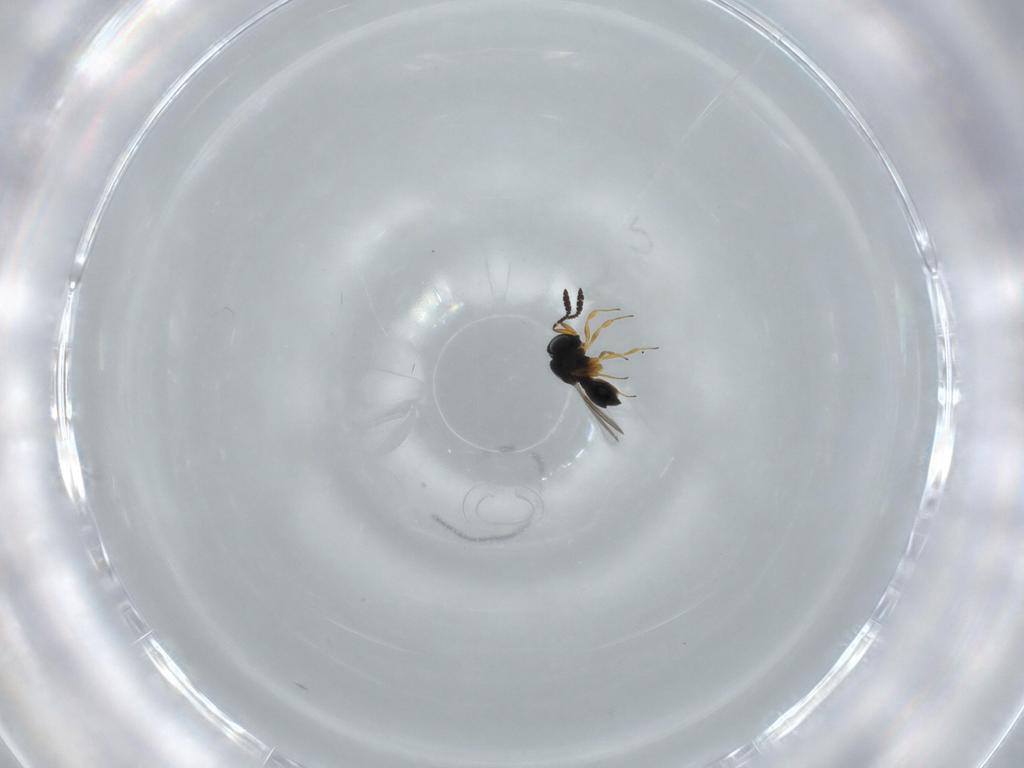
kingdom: Animalia
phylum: Arthropoda
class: Insecta
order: Hymenoptera
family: Scelionidae
